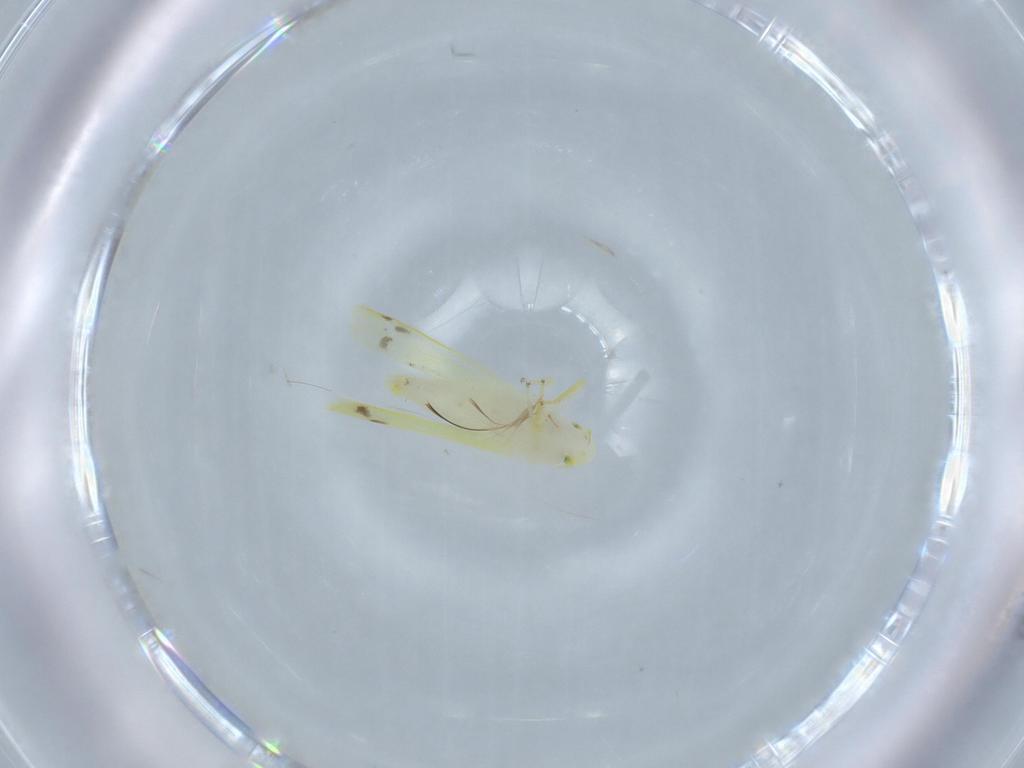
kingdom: Animalia
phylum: Arthropoda
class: Insecta
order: Hemiptera
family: Cicadellidae
